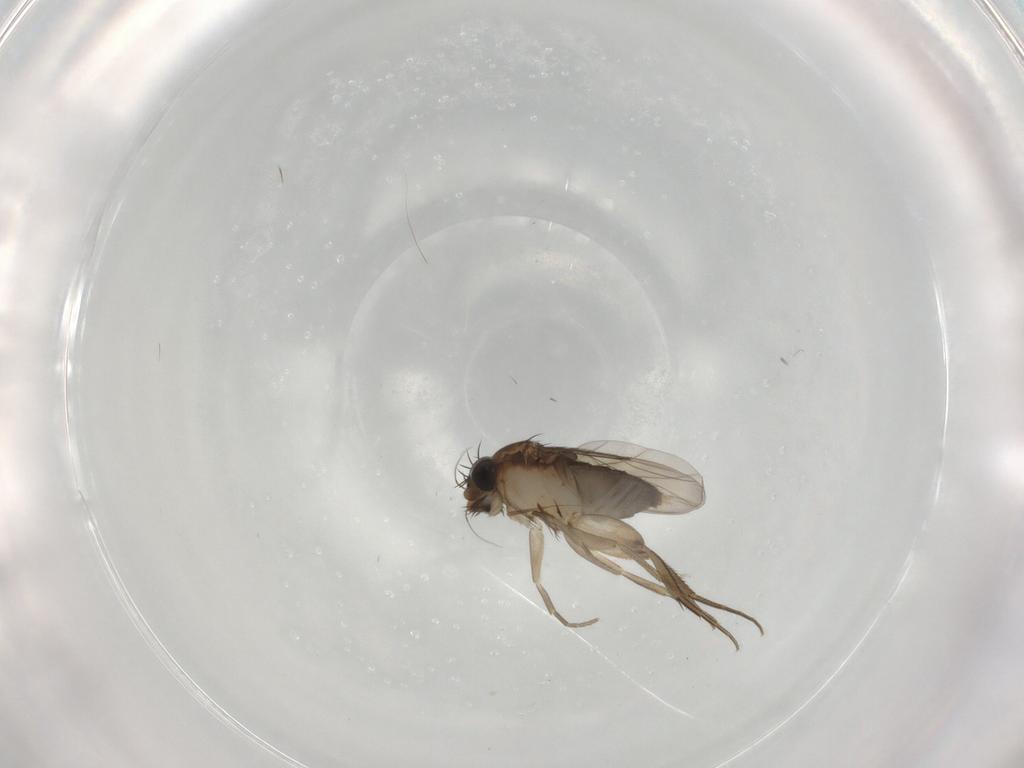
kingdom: Animalia
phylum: Arthropoda
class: Insecta
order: Diptera
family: Phoridae
